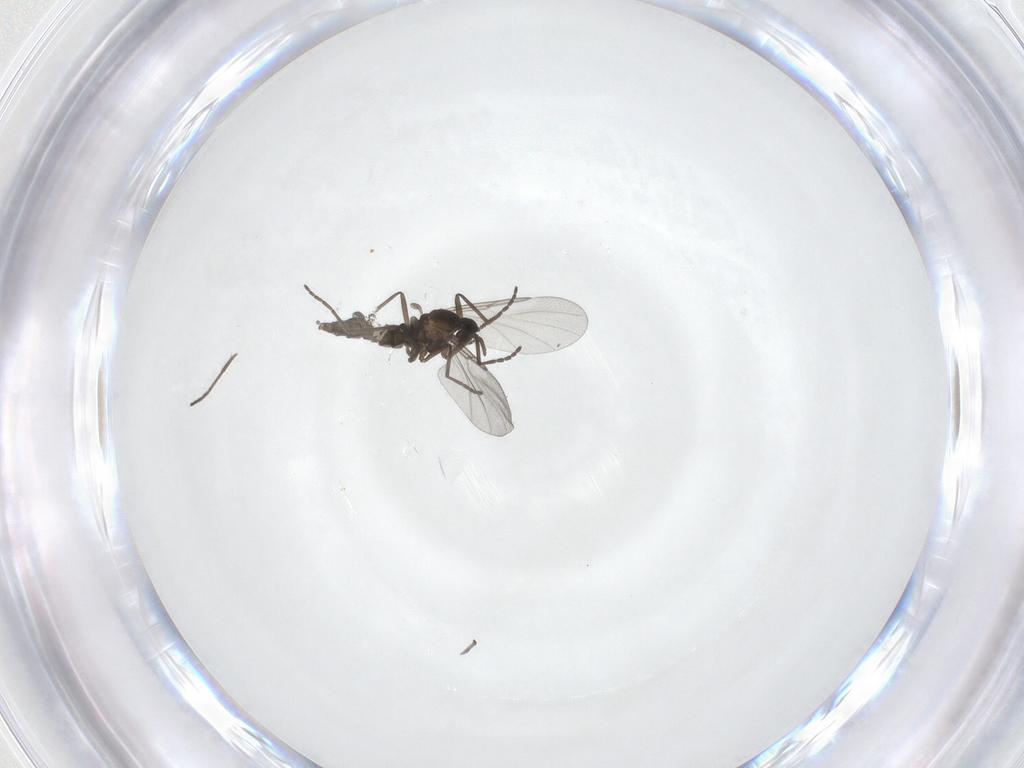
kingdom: Animalia
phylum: Arthropoda
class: Insecta
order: Diptera
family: Cecidomyiidae
